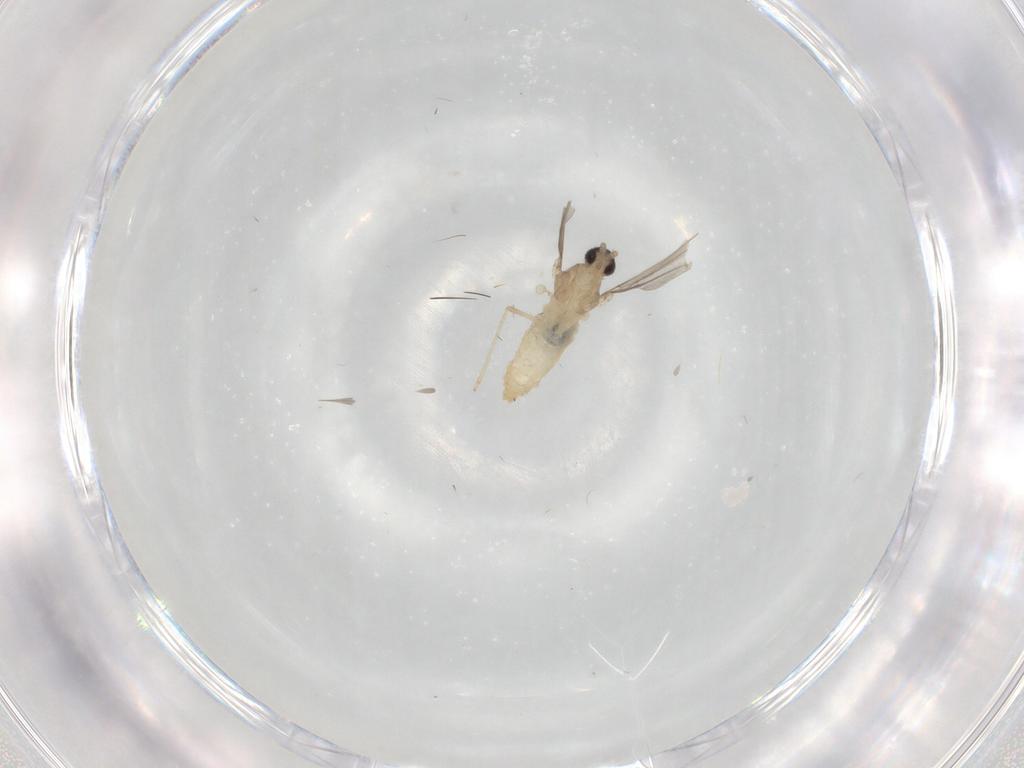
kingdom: Animalia
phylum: Arthropoda
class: Insecta
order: Diptera
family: Cecidomyiidae
